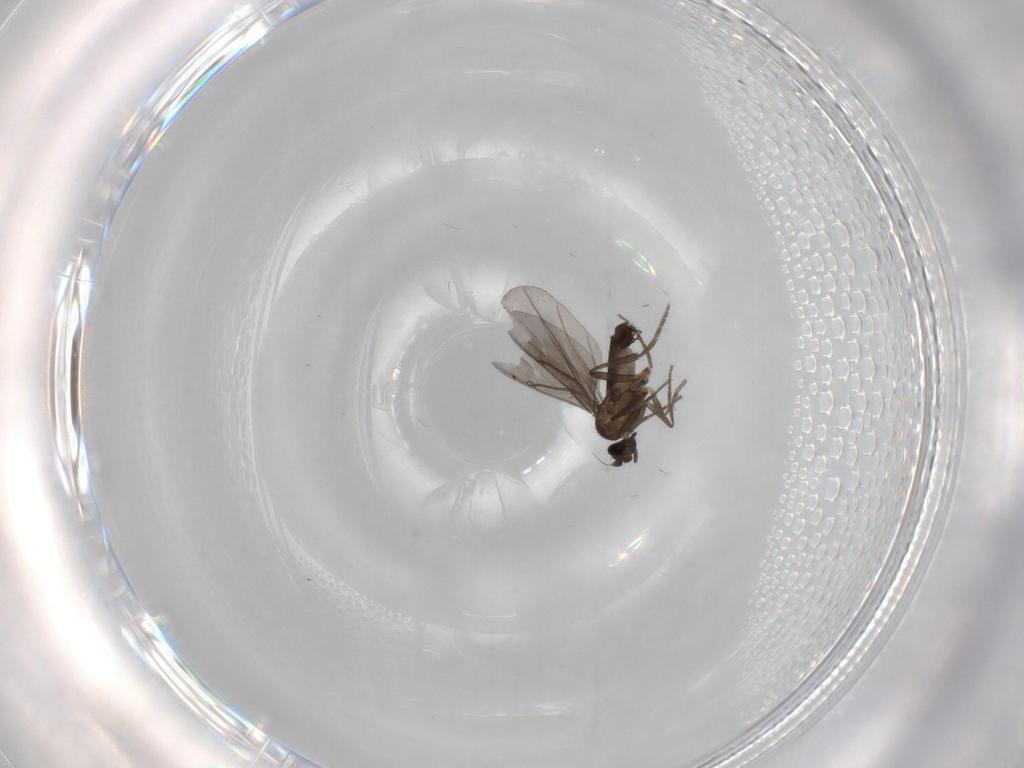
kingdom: Animalia
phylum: Arthropoda
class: Insecta
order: Diptera
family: Phoridae
